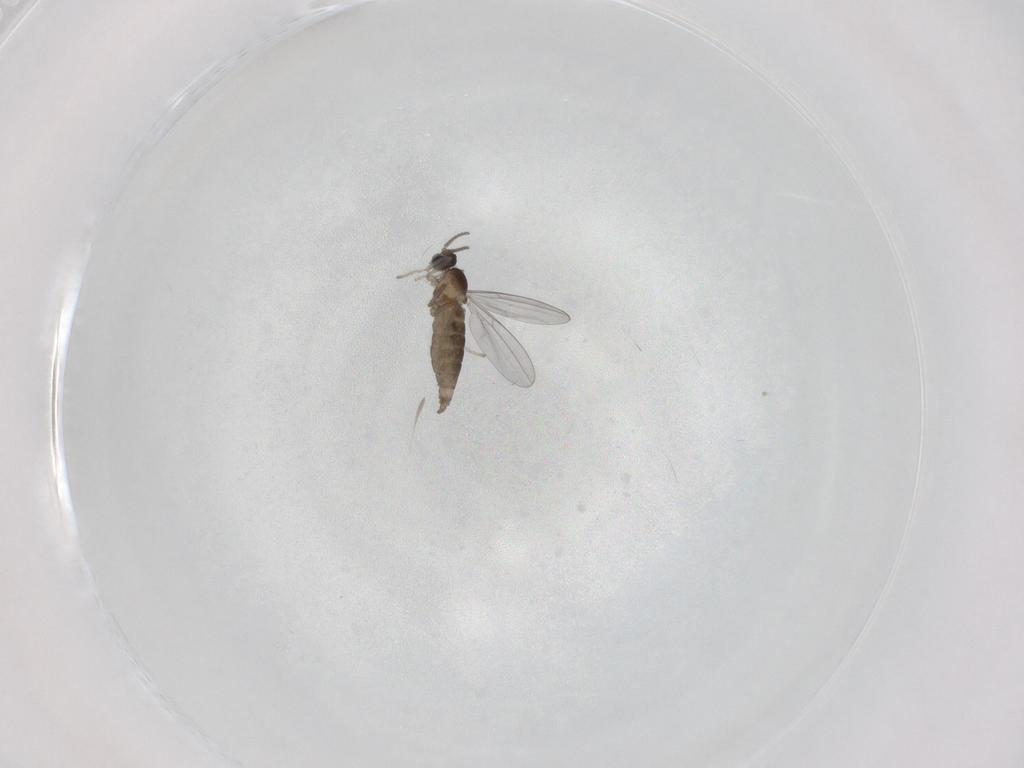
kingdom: Animalia
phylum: Arthropoda
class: Insecta
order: Diptera
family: Cecidomyiidae
